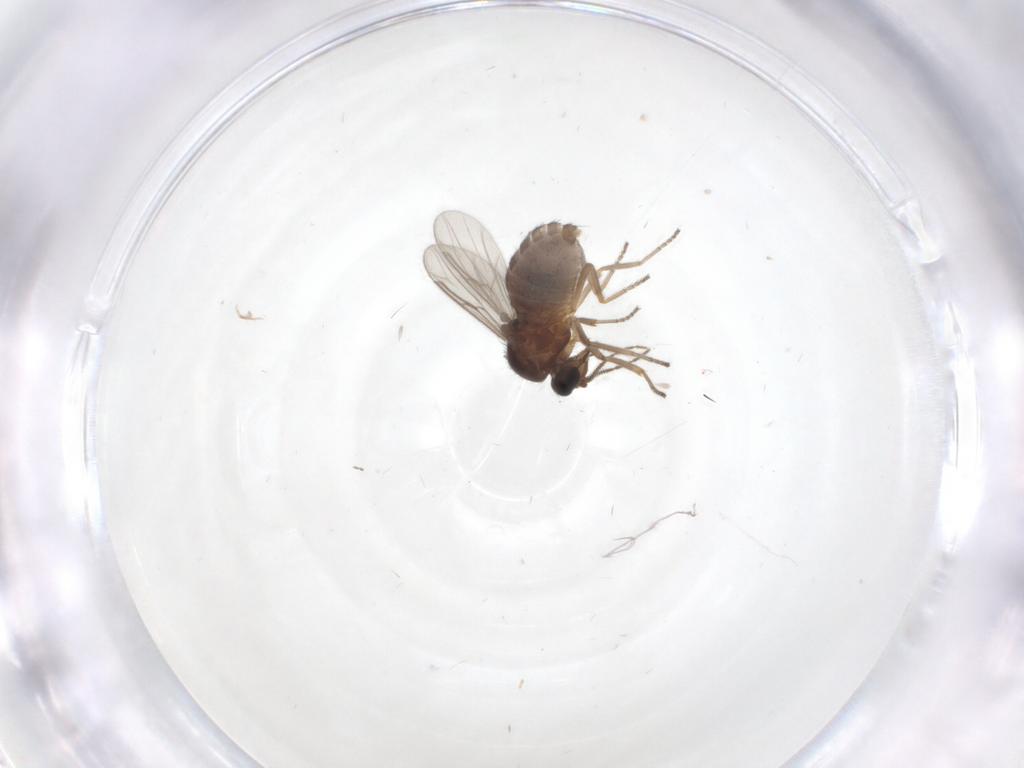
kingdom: Animalia
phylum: Arthropoda
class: Insecta
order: Diptera
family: Ceratopogonidae
